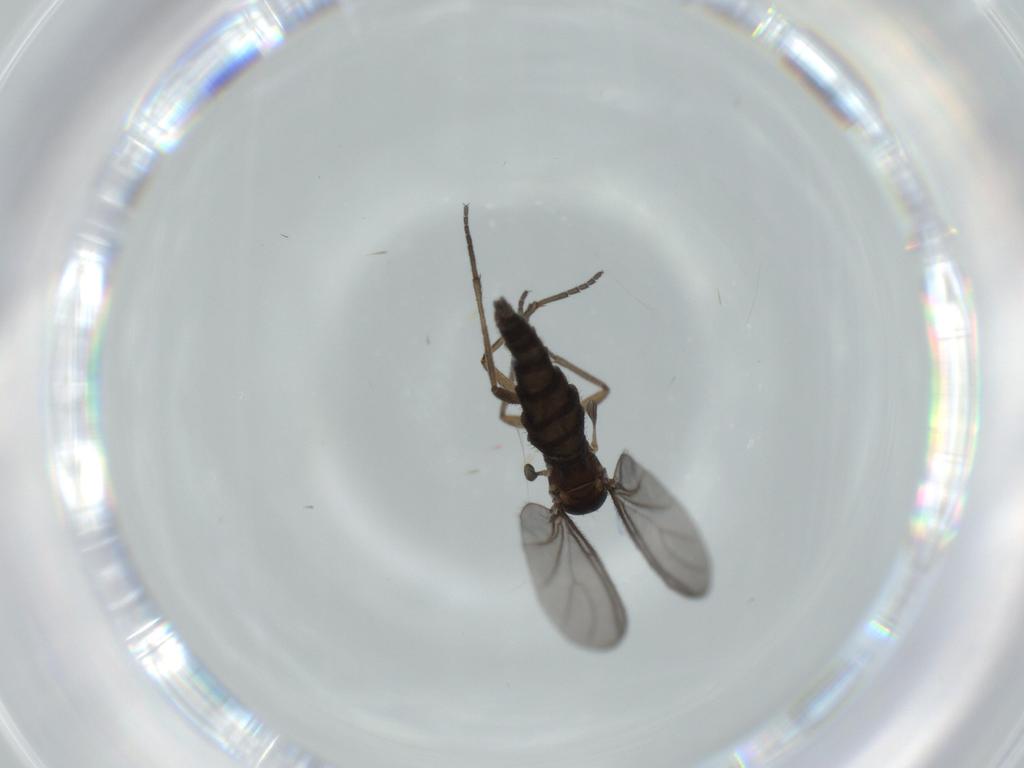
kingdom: Animalia
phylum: Arthropoda
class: Insecta
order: Diptera
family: Sciaridae
